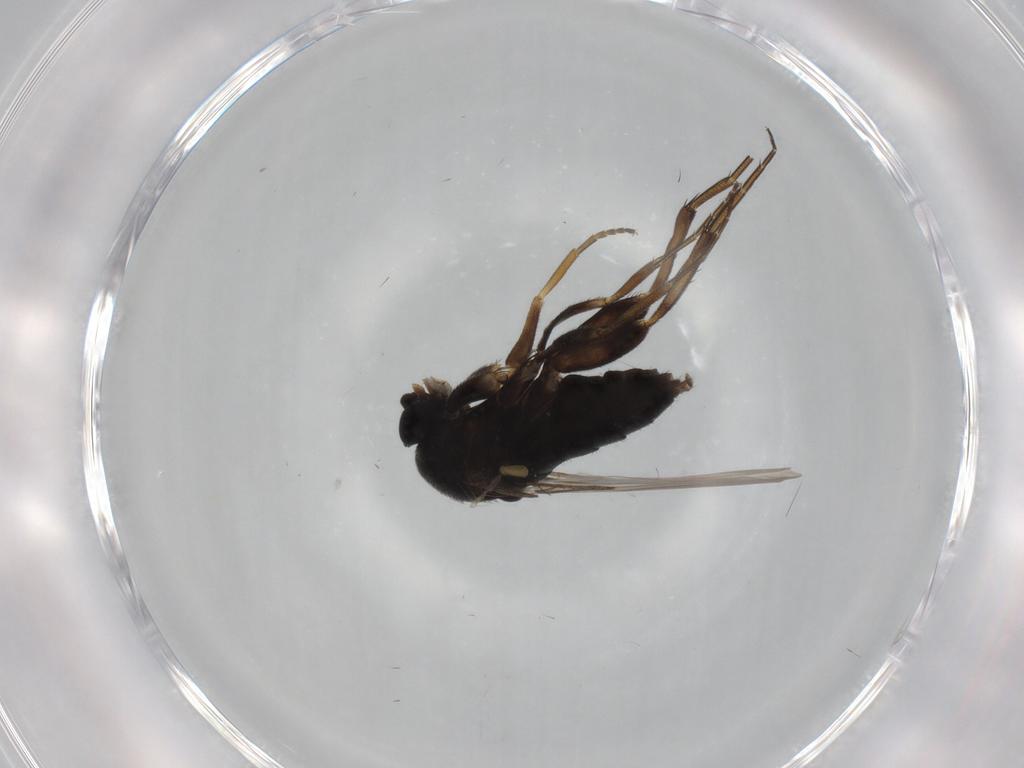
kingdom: Animalia
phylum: Arthropoda
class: Insecta
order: Diptera
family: Phoridae
